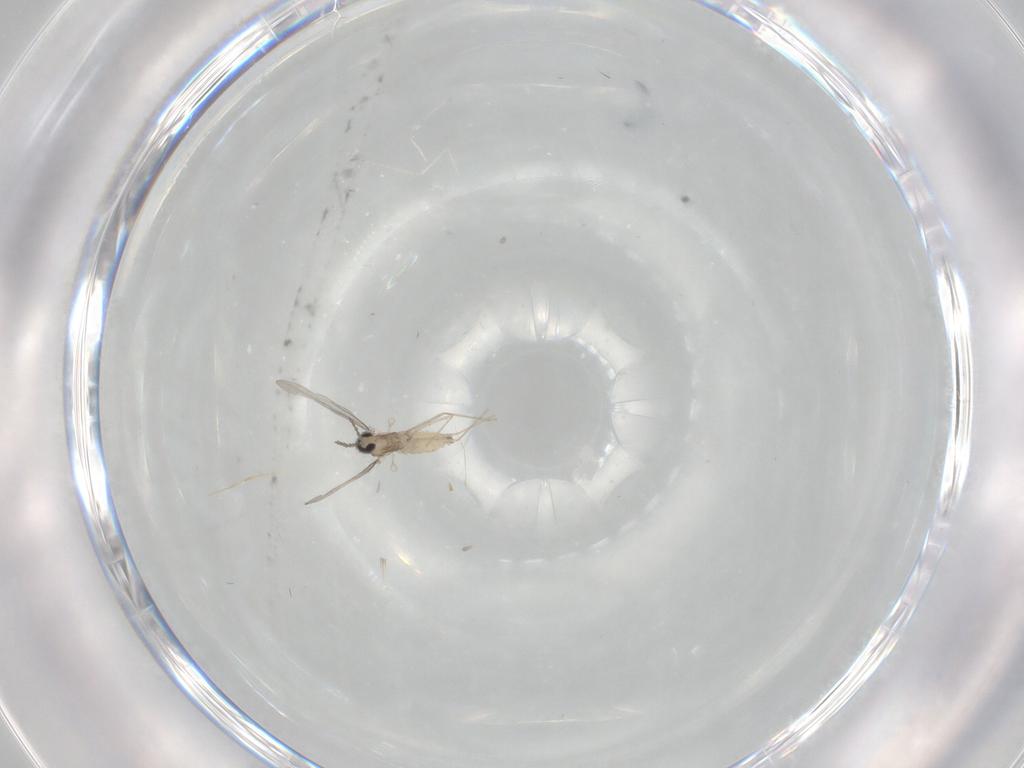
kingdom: Animalia
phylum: Arthropoda
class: Insecta
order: Diptera
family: Cecidomyiidae
